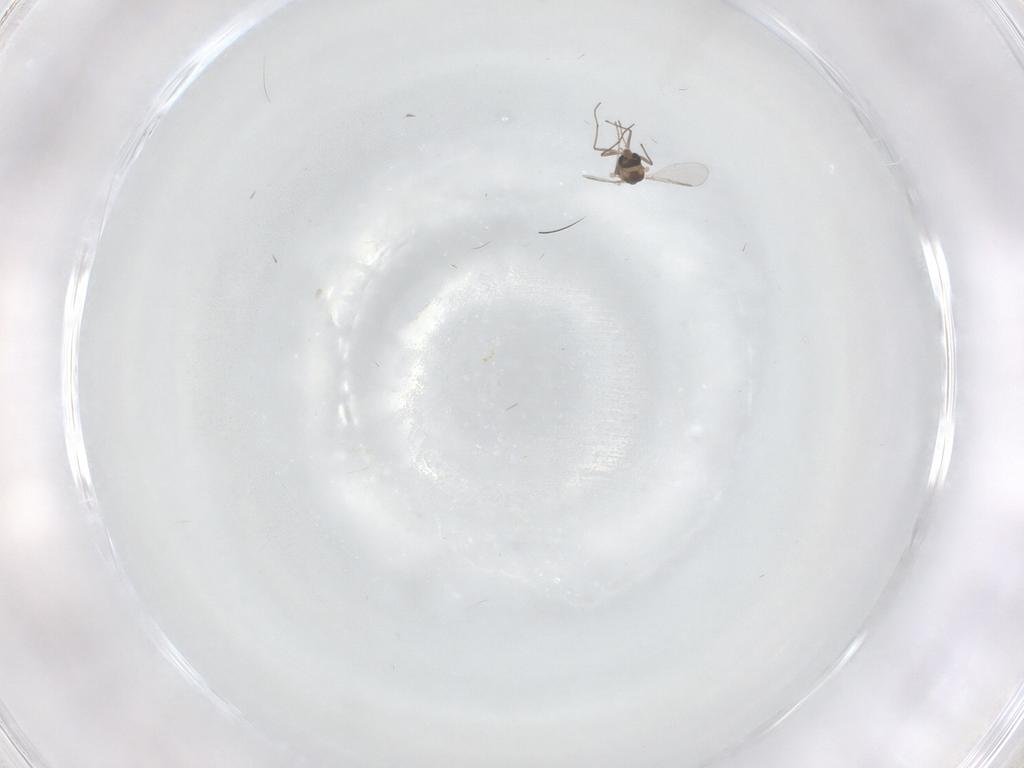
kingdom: Animalia
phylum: Arthropoda
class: Insecta
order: Diptera
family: Chironomidae
